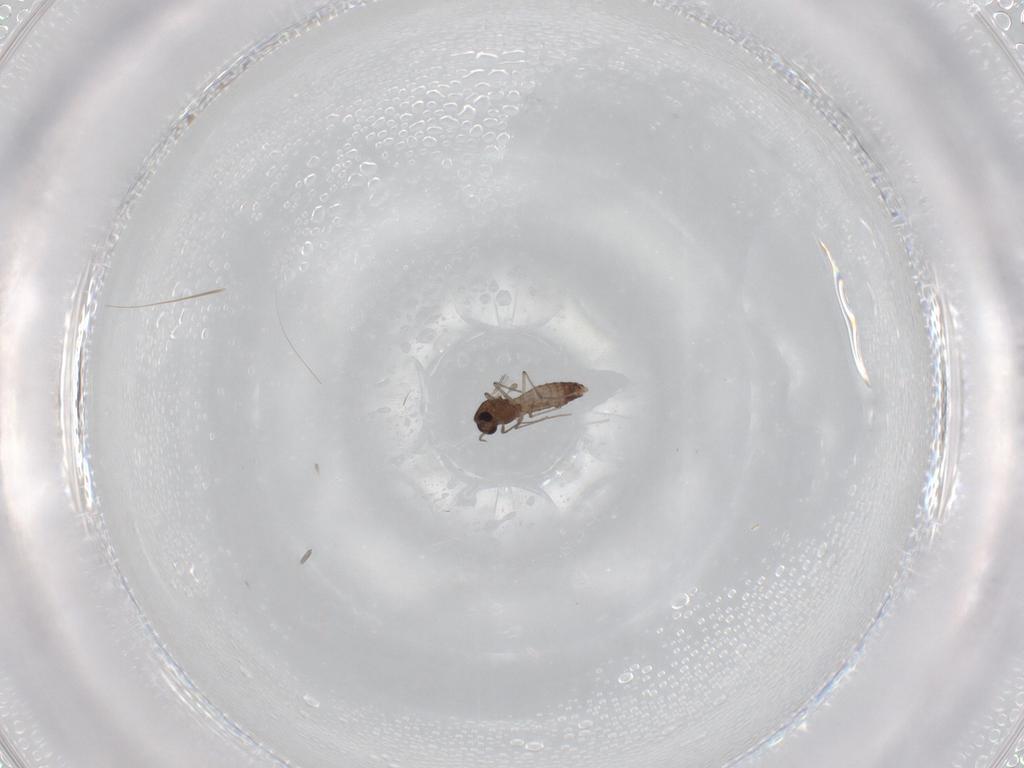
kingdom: Animalia
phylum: Arthropoda
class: Insecta
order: Diptera
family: Chironomidae
